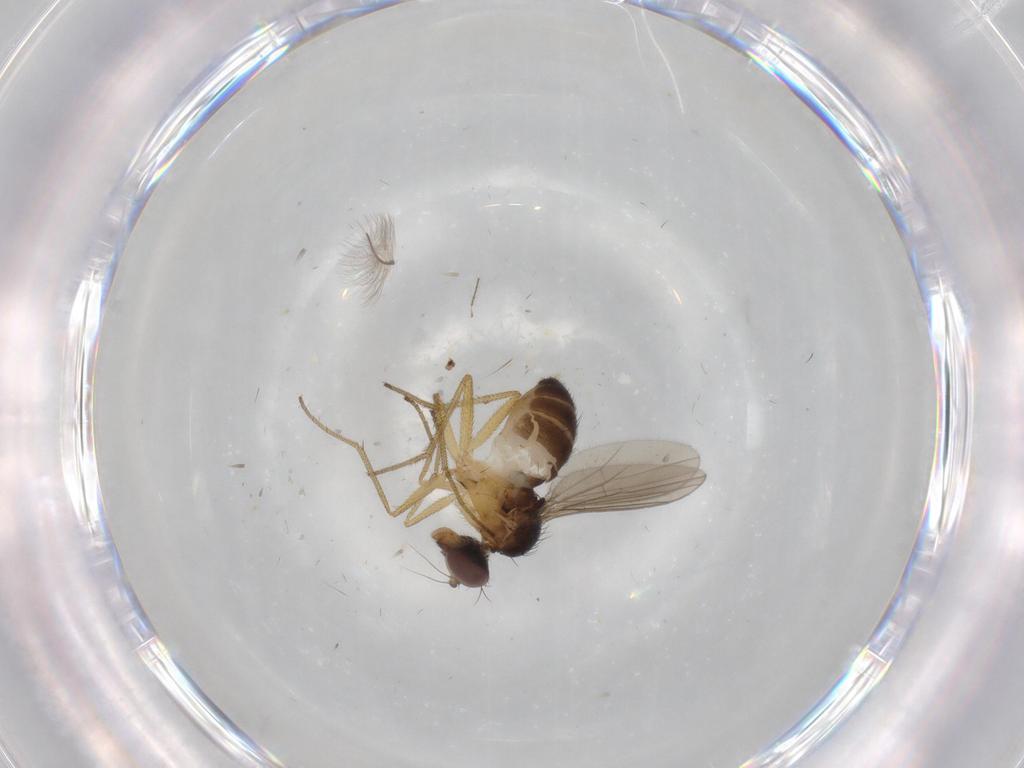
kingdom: Animalia
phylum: Arthropoda
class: Insecta
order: Diptera
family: Dolichopodidae
